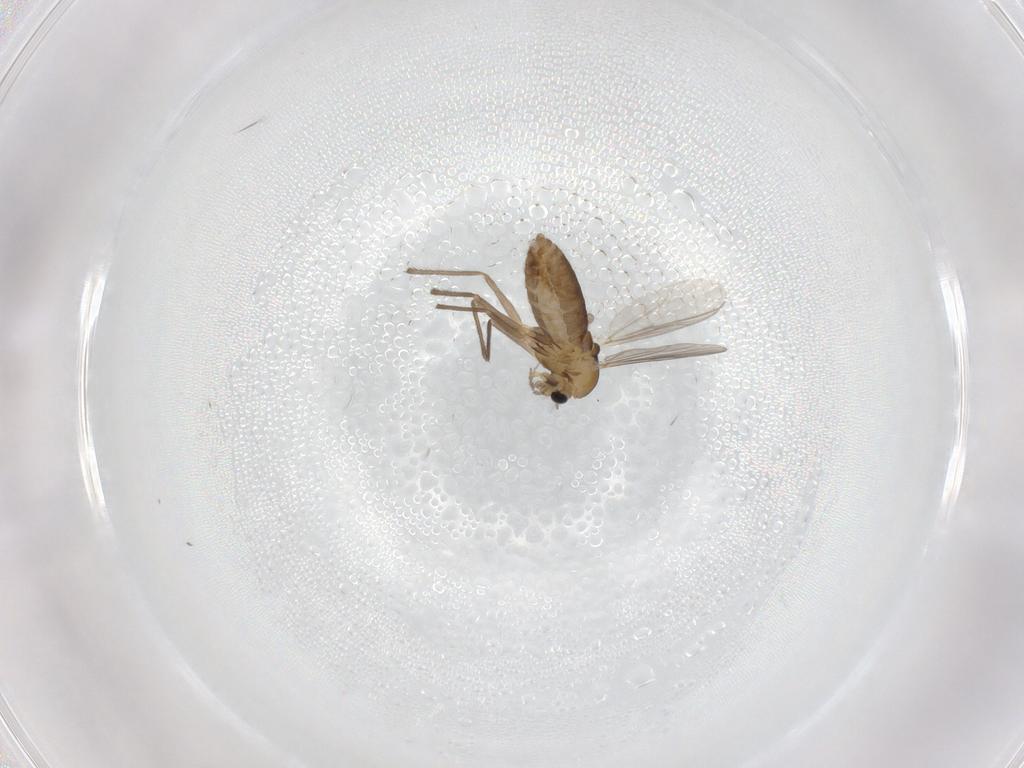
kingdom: Animalia
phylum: Arthropoda
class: Insecta
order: Diptera
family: Chironomidae
